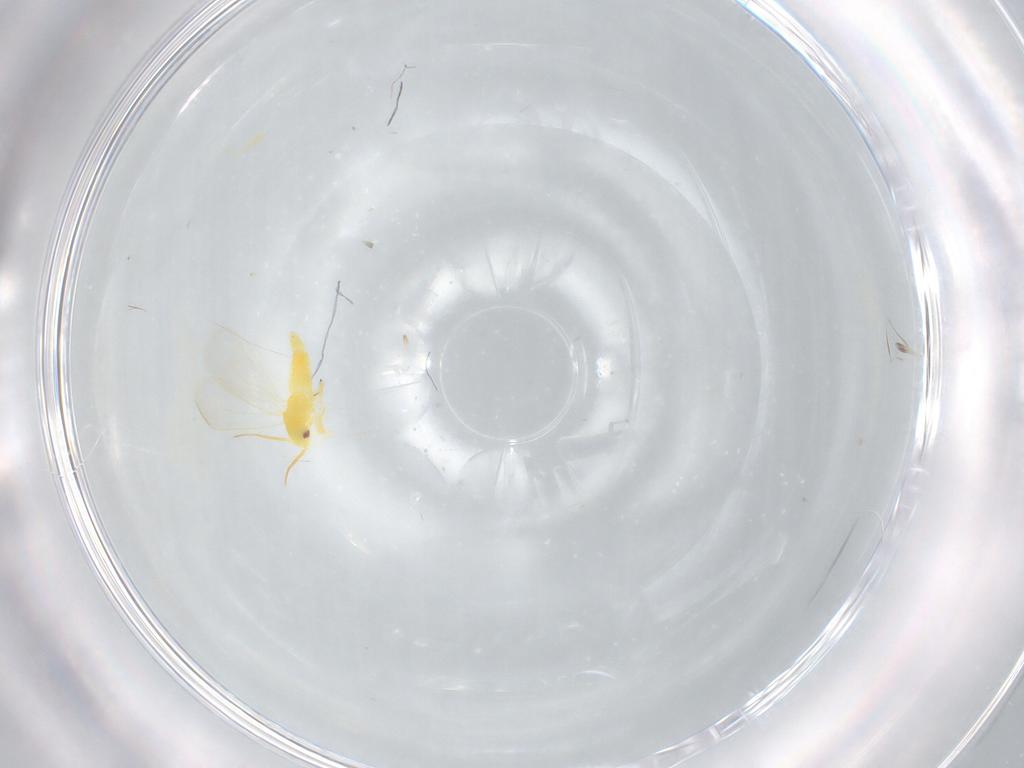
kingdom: Animalia
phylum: Arthropoda
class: Insecta
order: Hemiptera
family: Aleyrodidae
